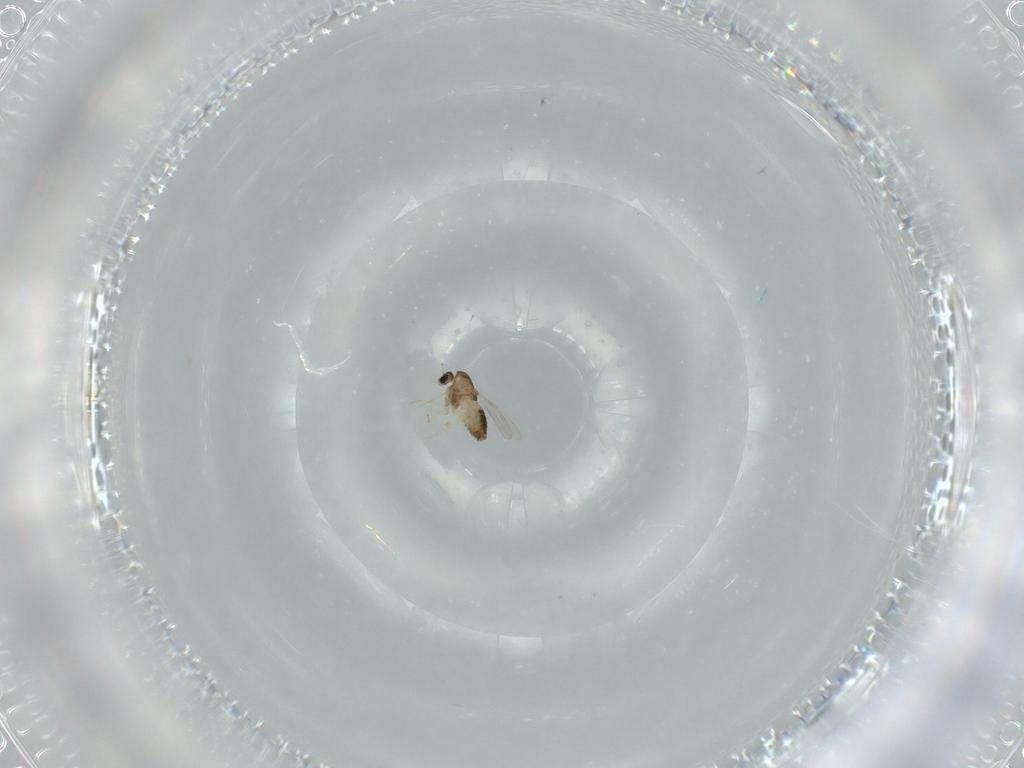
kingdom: Animalia
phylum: Arthropoda
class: Insecta
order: Diptera
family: Chironomidae
